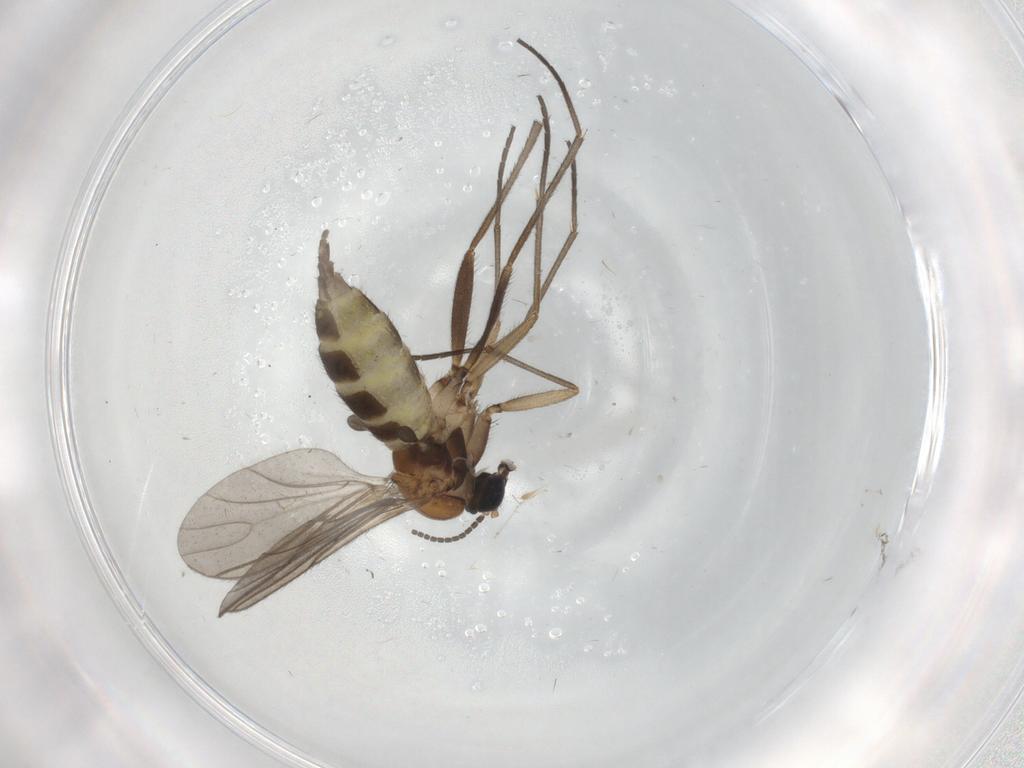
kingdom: Animalia
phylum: Arthropoda
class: Insecta
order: Diptera
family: Sciaridae
